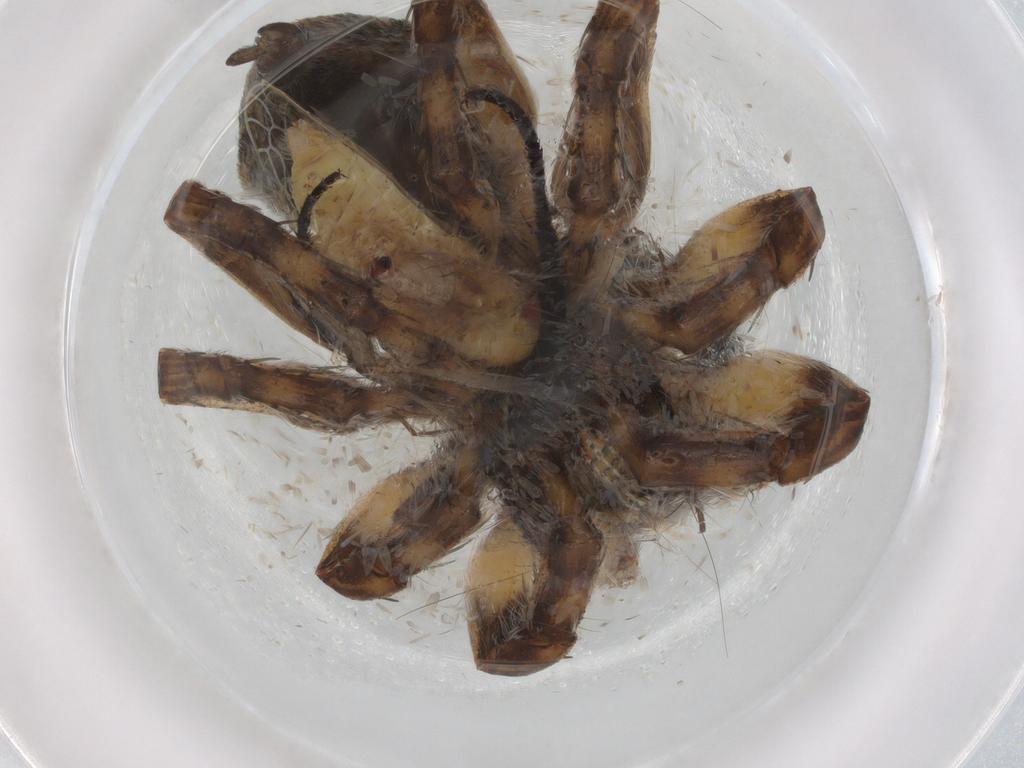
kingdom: Animalia
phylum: Arthropoda
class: Arachnida
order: Araneae
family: Salticidae
